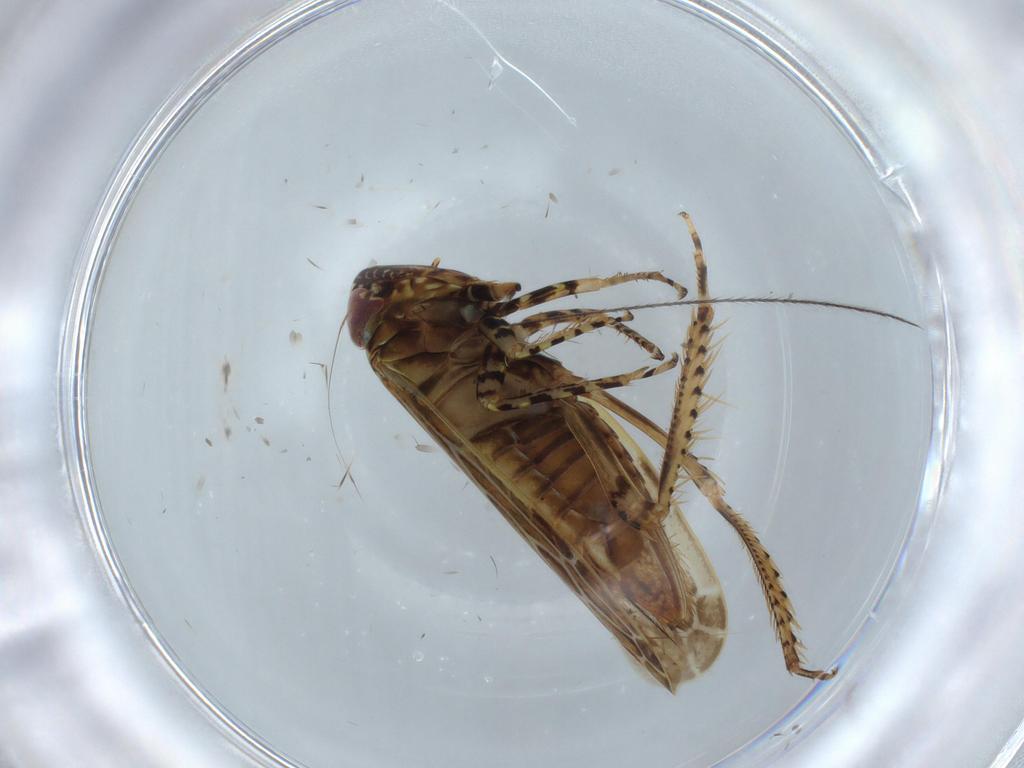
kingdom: Animalia
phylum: Arthropoda
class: Insecta
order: Hemiptera
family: Cicadellidae
